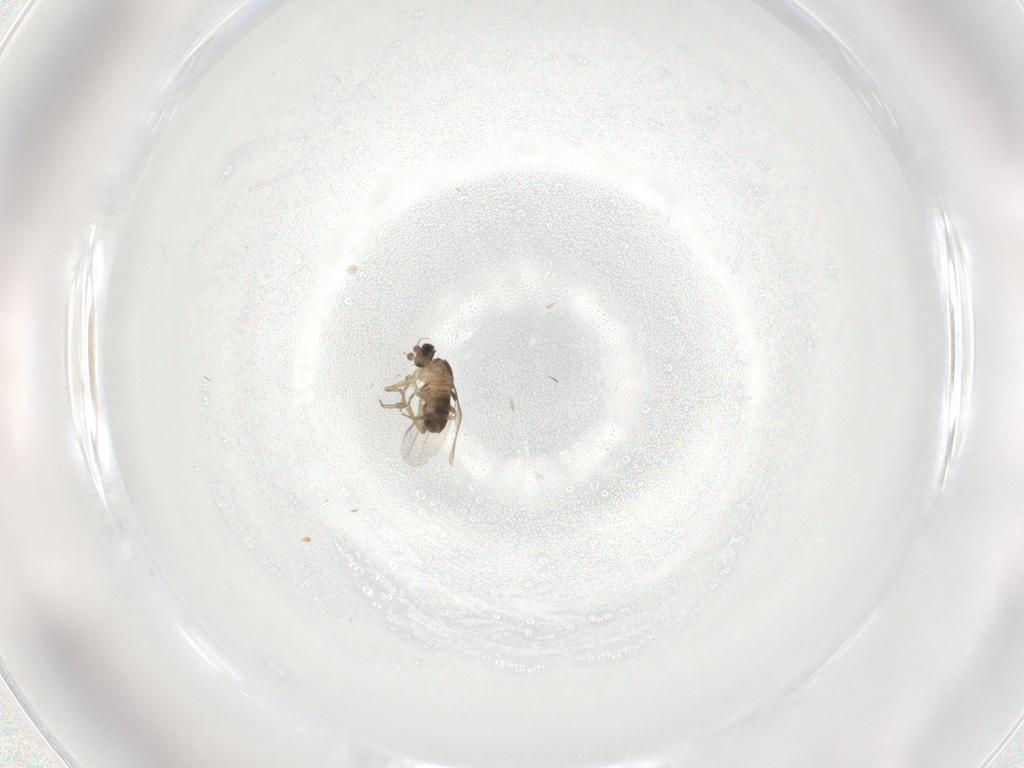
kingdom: Animalia
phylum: Arthropoda
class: Insecta
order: Diptera
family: Phoridae
